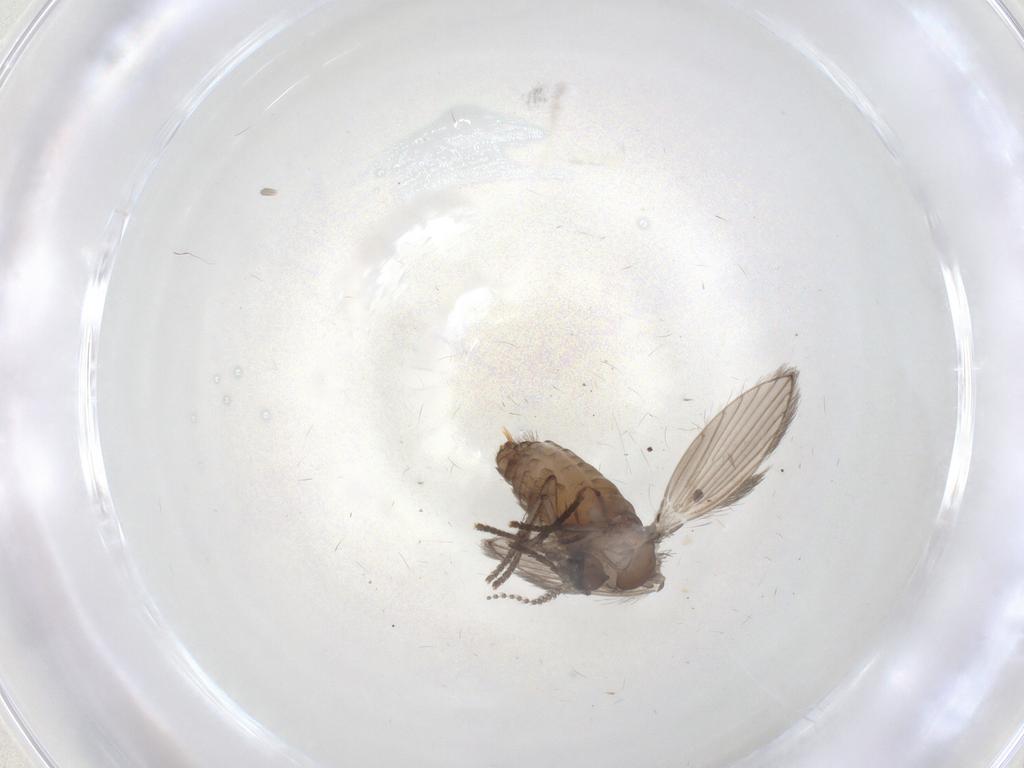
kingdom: Animalia
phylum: Arthropoda
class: Insecta
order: Diptera
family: Psychodidae
